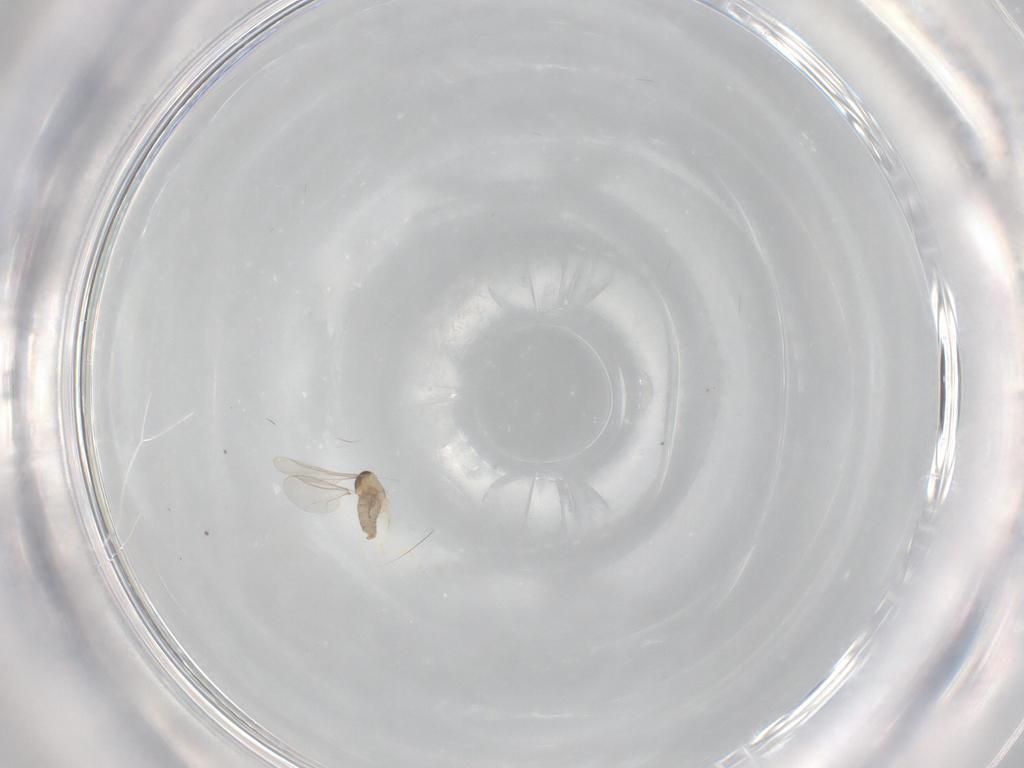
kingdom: Animalia
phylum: Arthropoda
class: Insecta
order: Diptera
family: Cecidomyiidae
